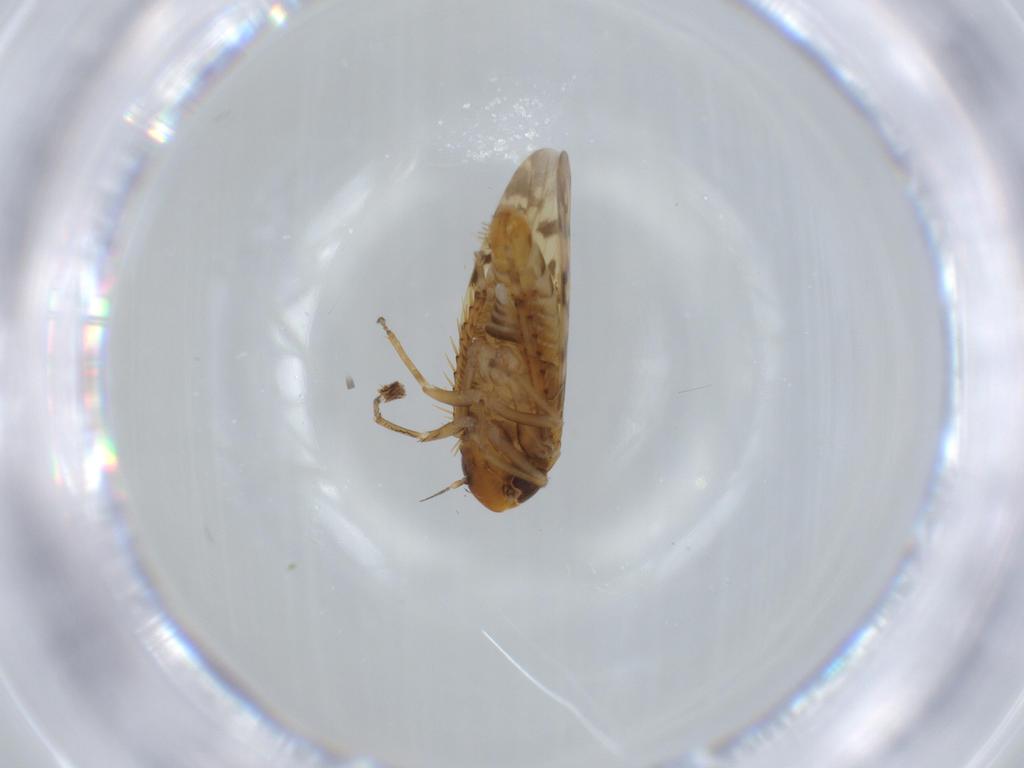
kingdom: Animalia
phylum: Arthropoda
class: Insecta
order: Hemiptera
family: Cicadellidae
